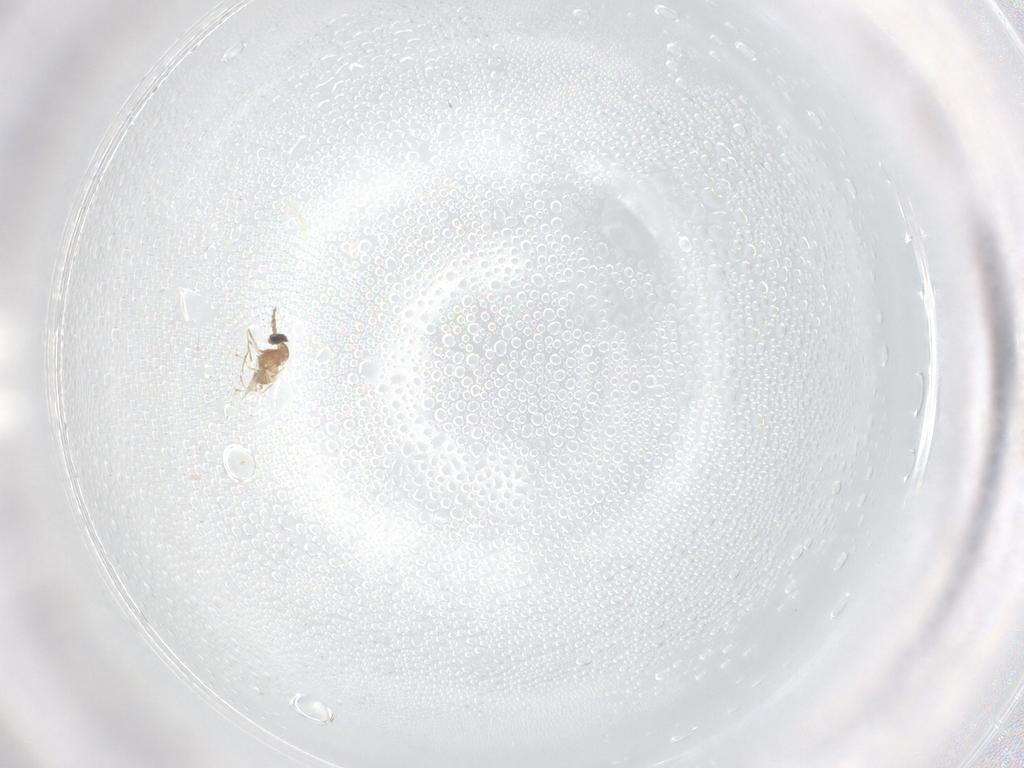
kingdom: Animalia
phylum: Arthropoda
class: Insecta
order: Diptera
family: Cecidomyiidae
